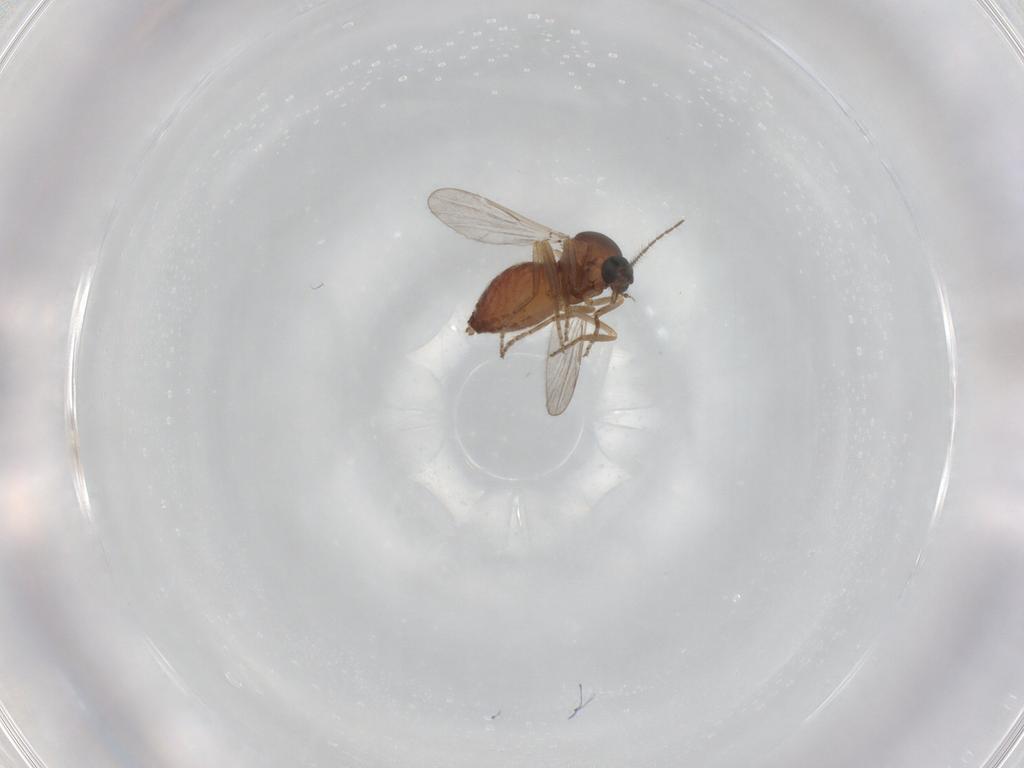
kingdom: Animalia
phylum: Arthropoda
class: Insecta
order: Diptera
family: Ceratopogonidae
